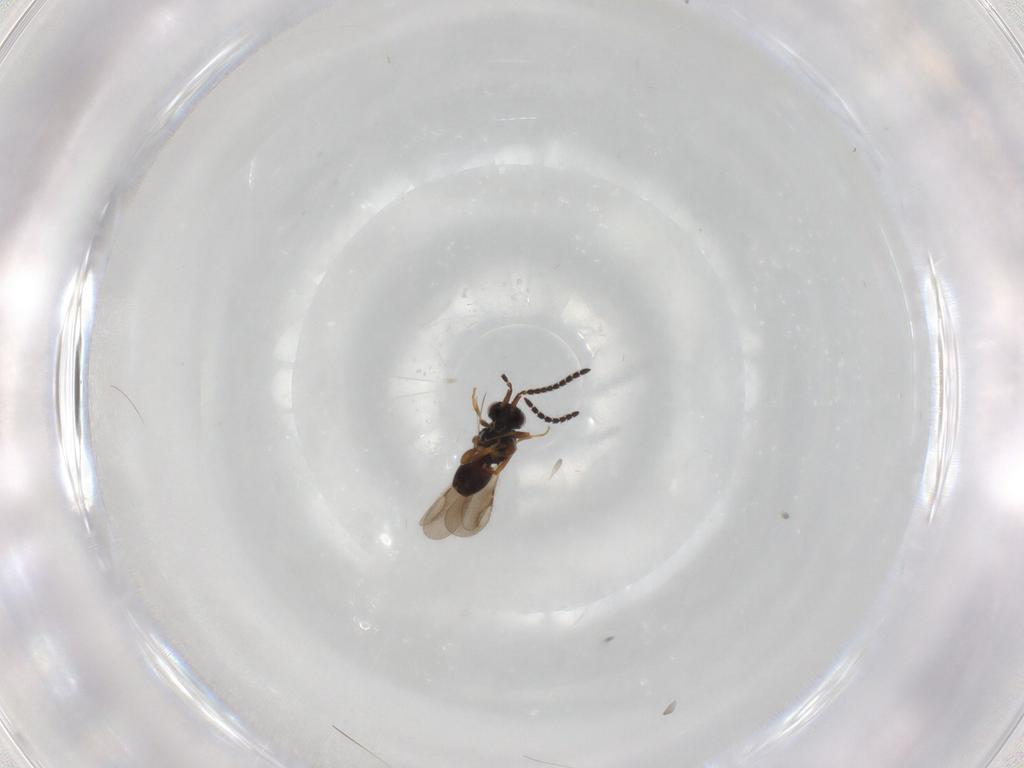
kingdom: Animalia
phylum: Arthropoda
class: Insecta
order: Hymenoptera
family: Ceraphronidae
